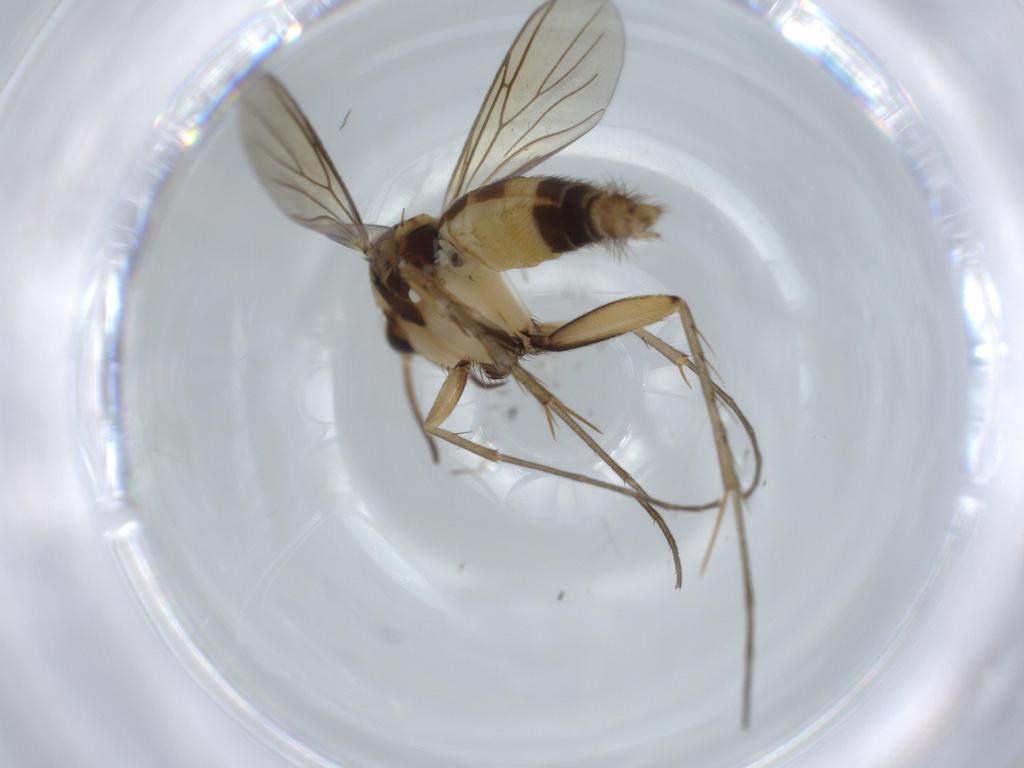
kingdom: Animalia
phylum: Arthropoda
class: Insecta
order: Diptera
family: Mycetophilidae
